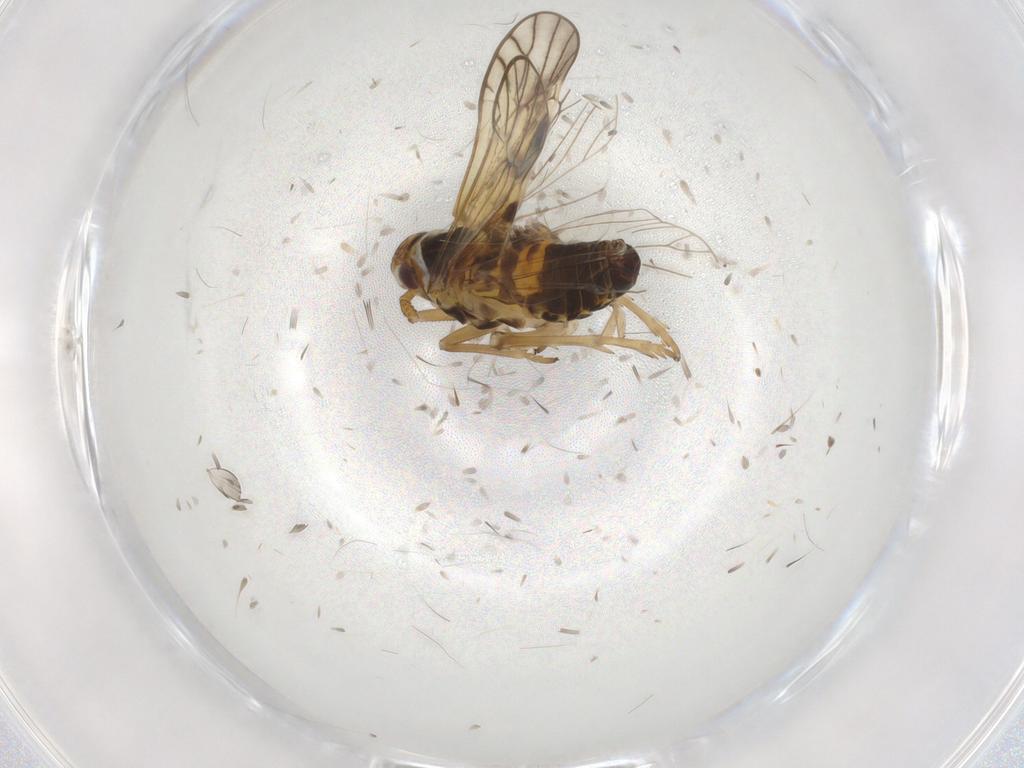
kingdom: Animalia
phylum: Arthropoda
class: Insecta
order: Hemiptera
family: Delphacidae
